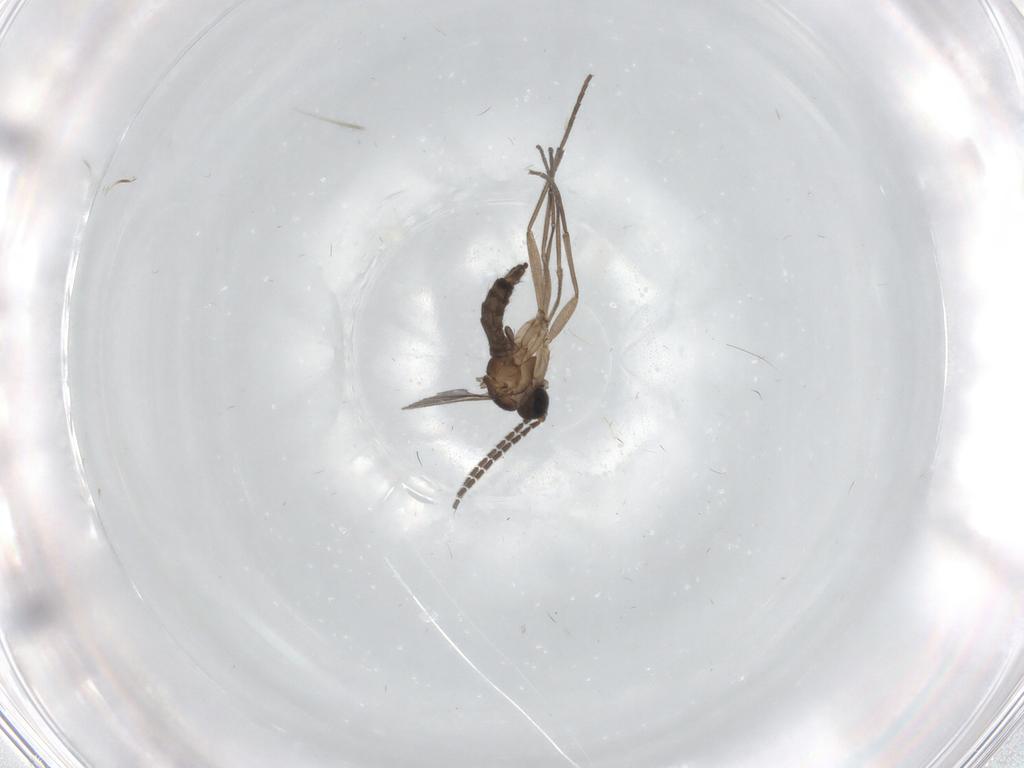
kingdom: Animalia
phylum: Arthropoda
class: Insecta
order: Diptera
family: Sciaridae
